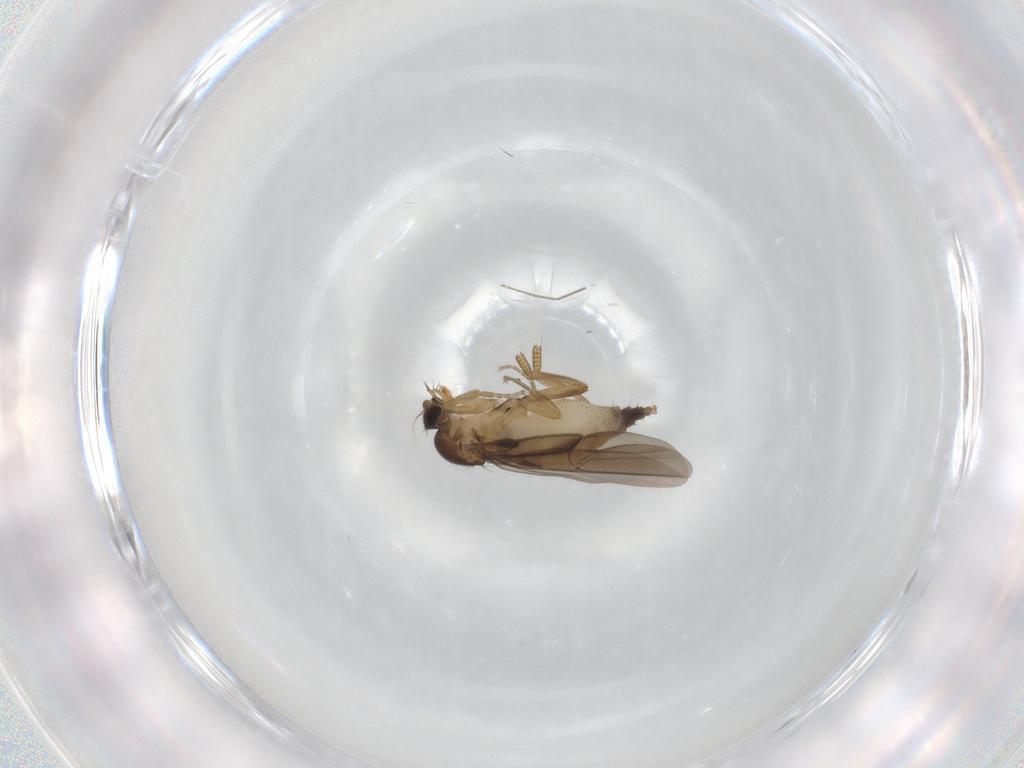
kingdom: Animalia
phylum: Arthropoda
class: Insecta
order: Diptera
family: Phoridae
